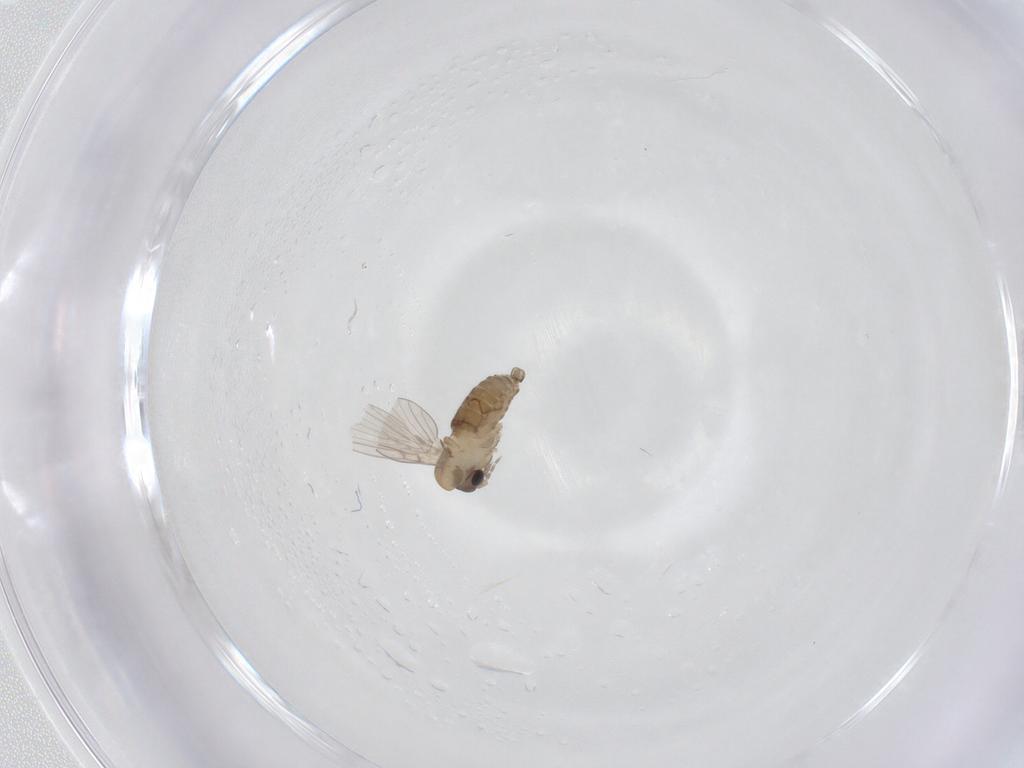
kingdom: Animalia
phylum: Arthropoda
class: Insecta
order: Diptera
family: Psychodidae
